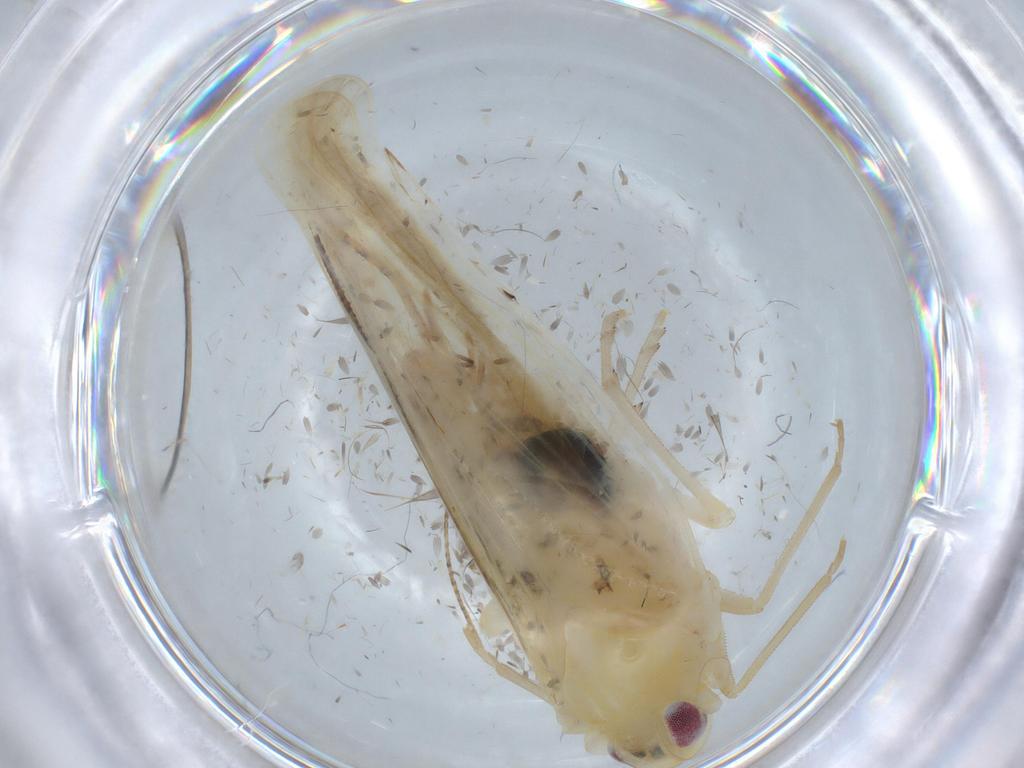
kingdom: Animalia
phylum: Arthropoda
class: Insecta
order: Hemiptera
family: Derbidae
